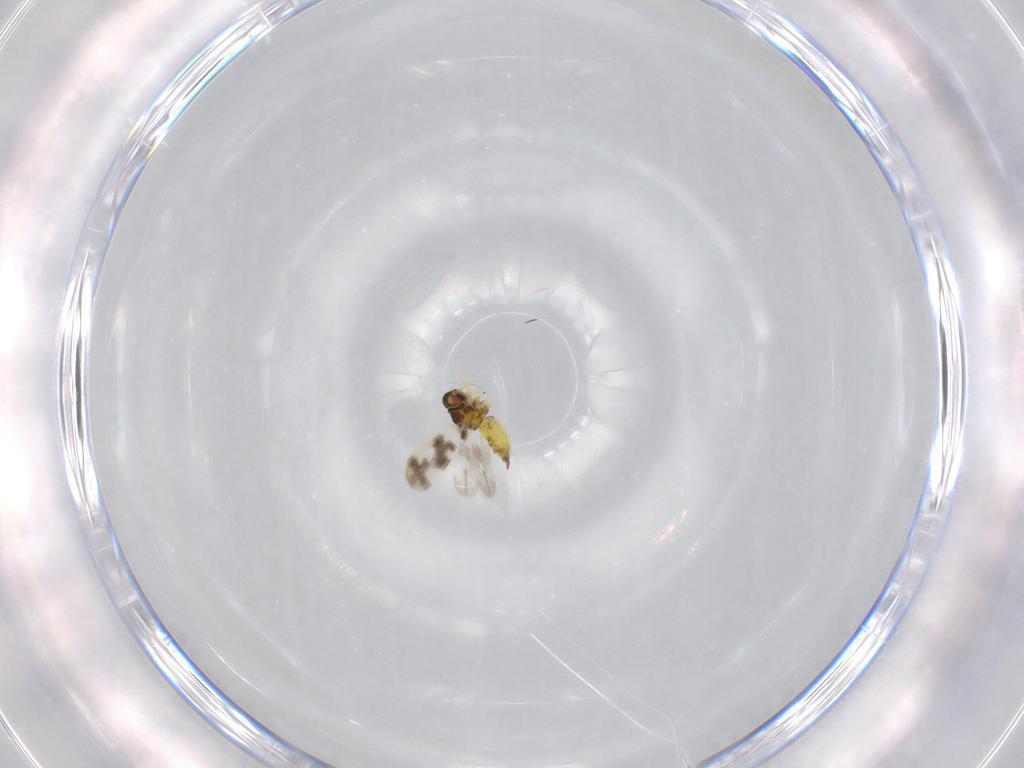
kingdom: Animalia
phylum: Arthropoda
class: Insecta
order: Hemiptera
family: Aleyrodidae
